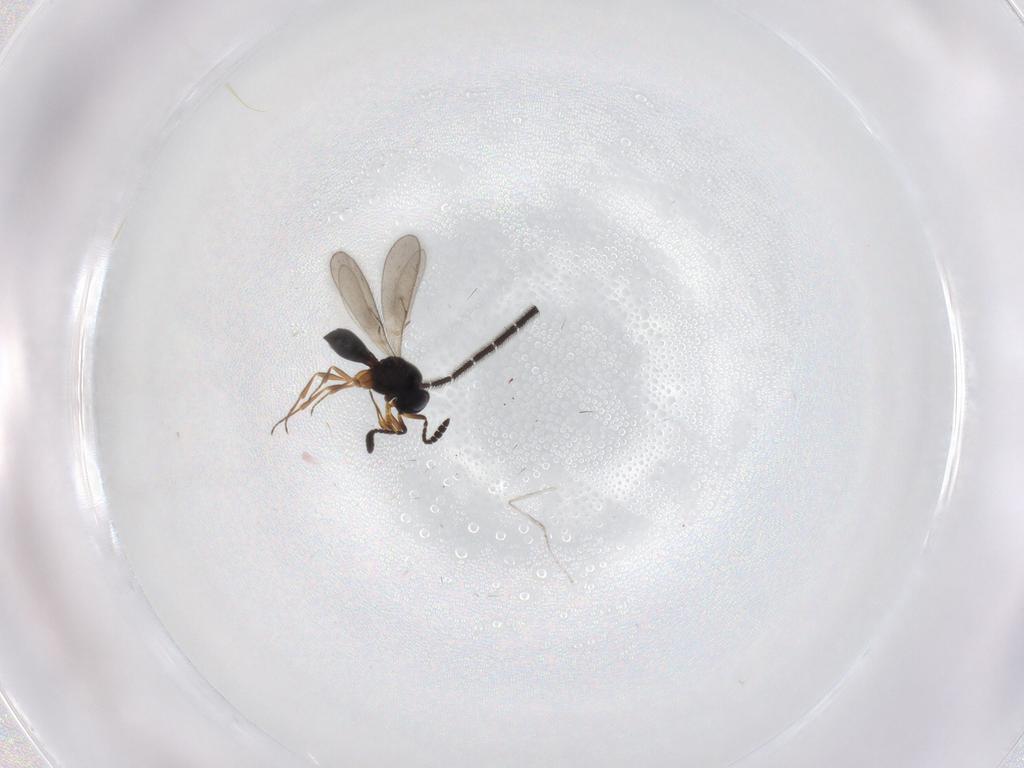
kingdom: Animalia
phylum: Arthropoda
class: Insecta
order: Hymenoptera
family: Scelionidae
